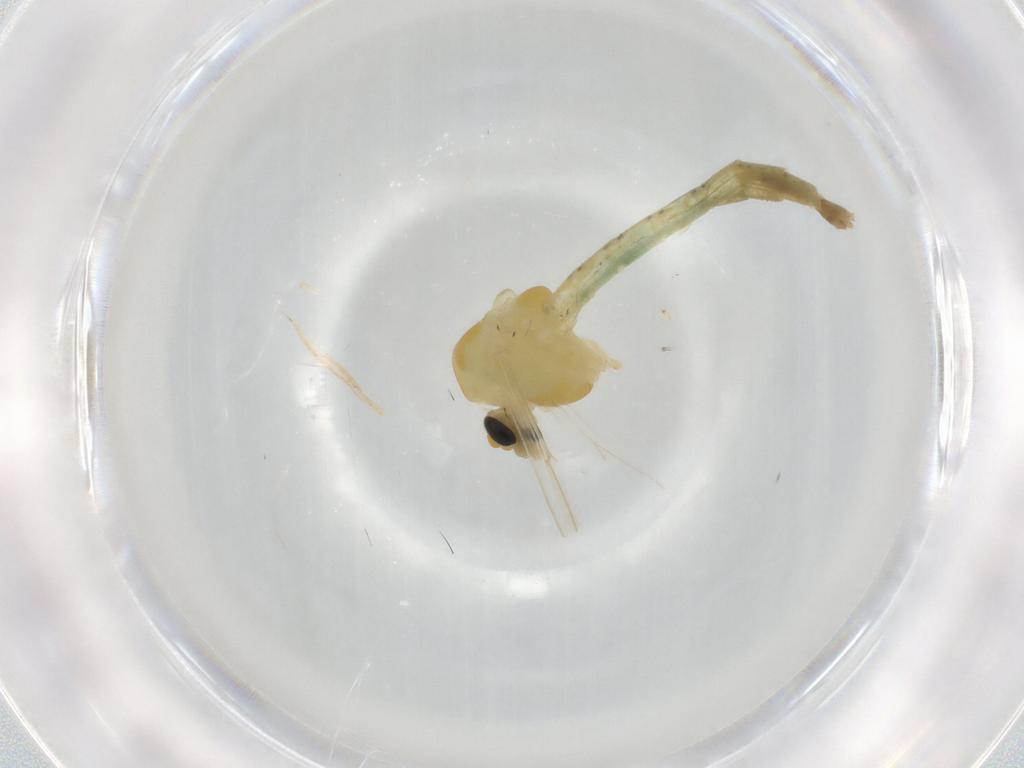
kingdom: Animalia
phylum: Arthropoda
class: Insecta
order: Diptera
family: Chironomidae
